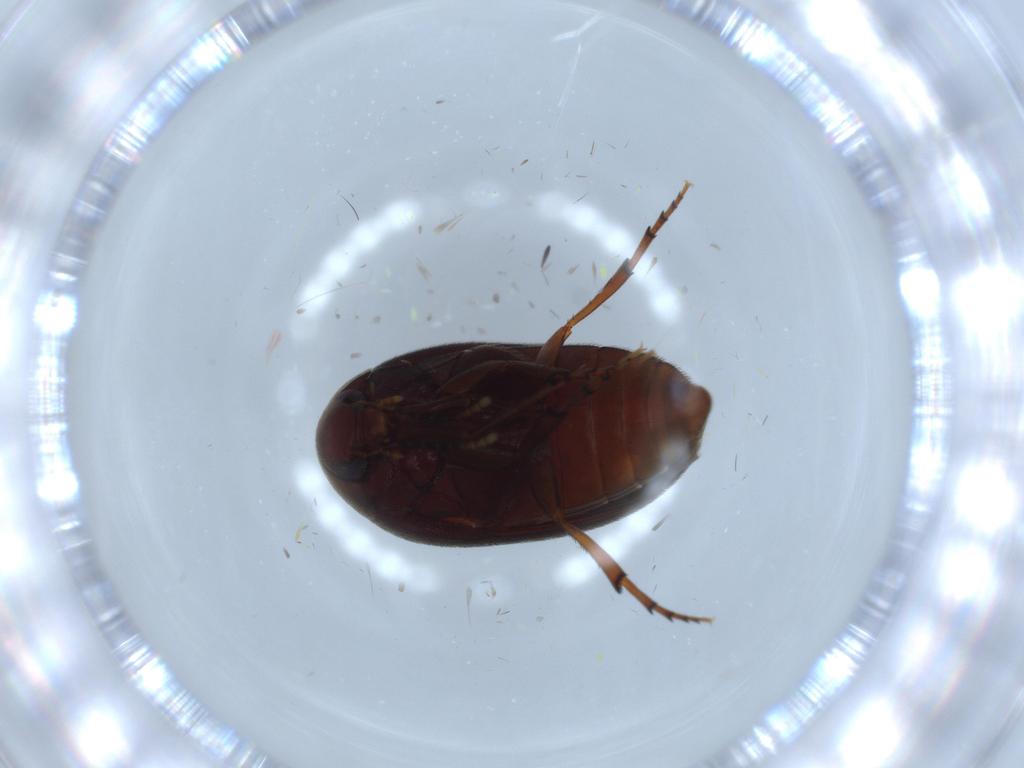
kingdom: Animalia
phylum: Arthropoda
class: Insecta
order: Coleoptera
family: Eucinetidae
